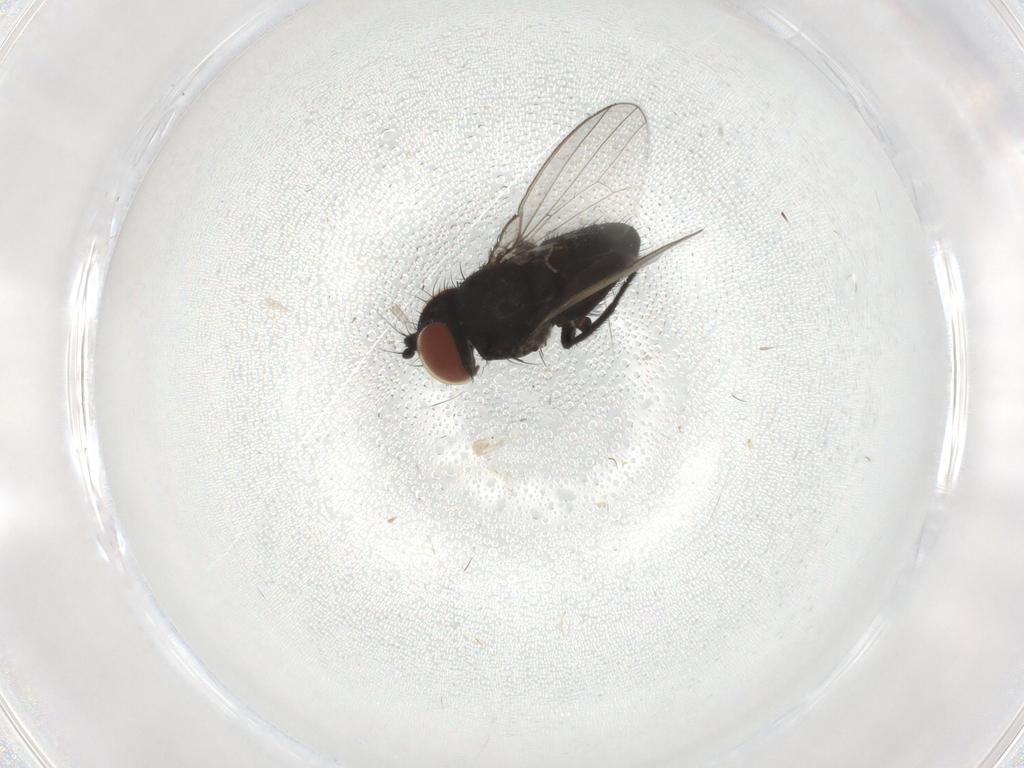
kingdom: Animalia
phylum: Arthropoda
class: Insecta
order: Diptera
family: Milichiidae
